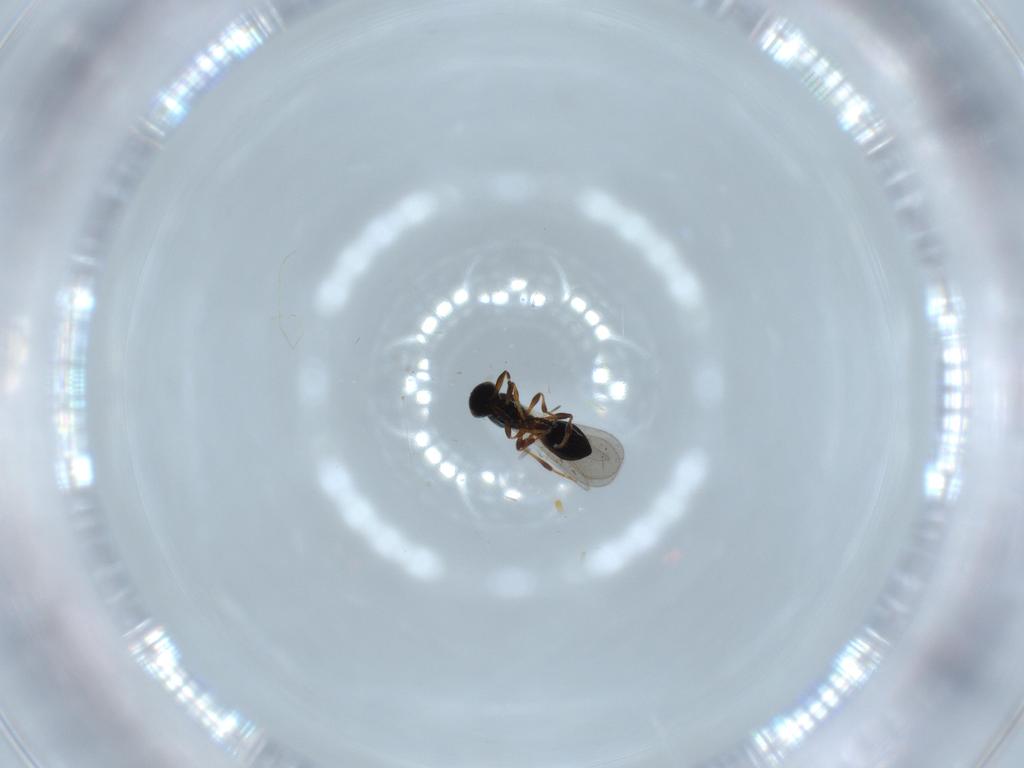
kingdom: Animalia
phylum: Arthropoda
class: Insecta
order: Hymenoptera
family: Platygastridae
